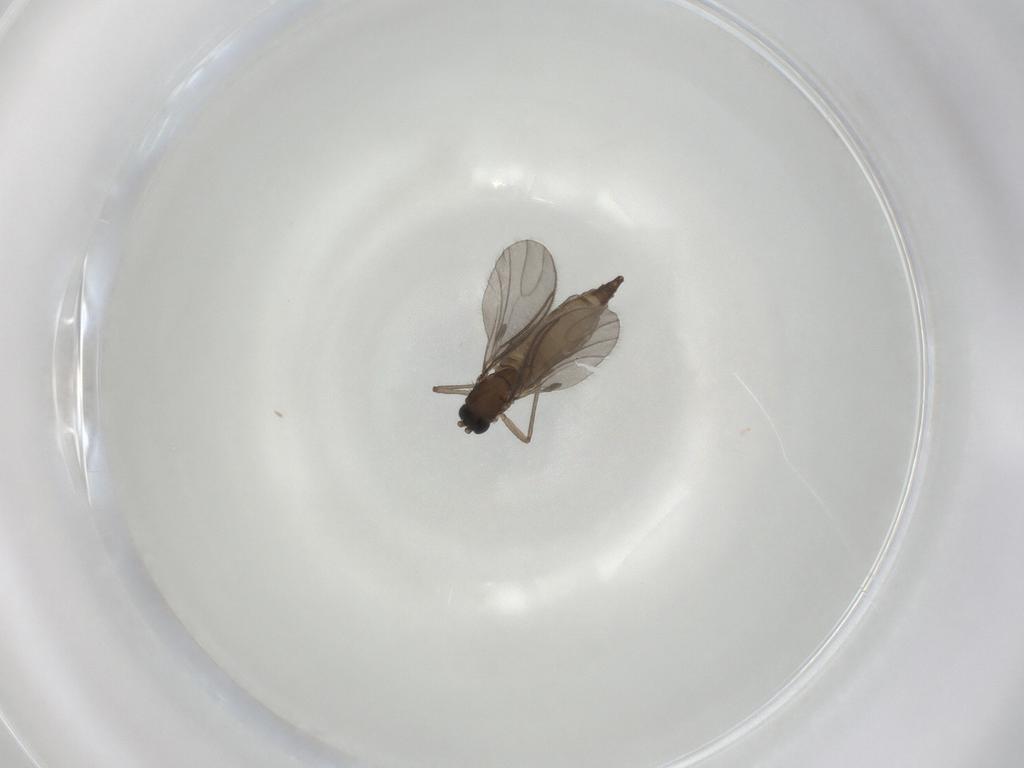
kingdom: Animalia
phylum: Arthropoda
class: Insecta
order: Diptera
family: Sciaridae
